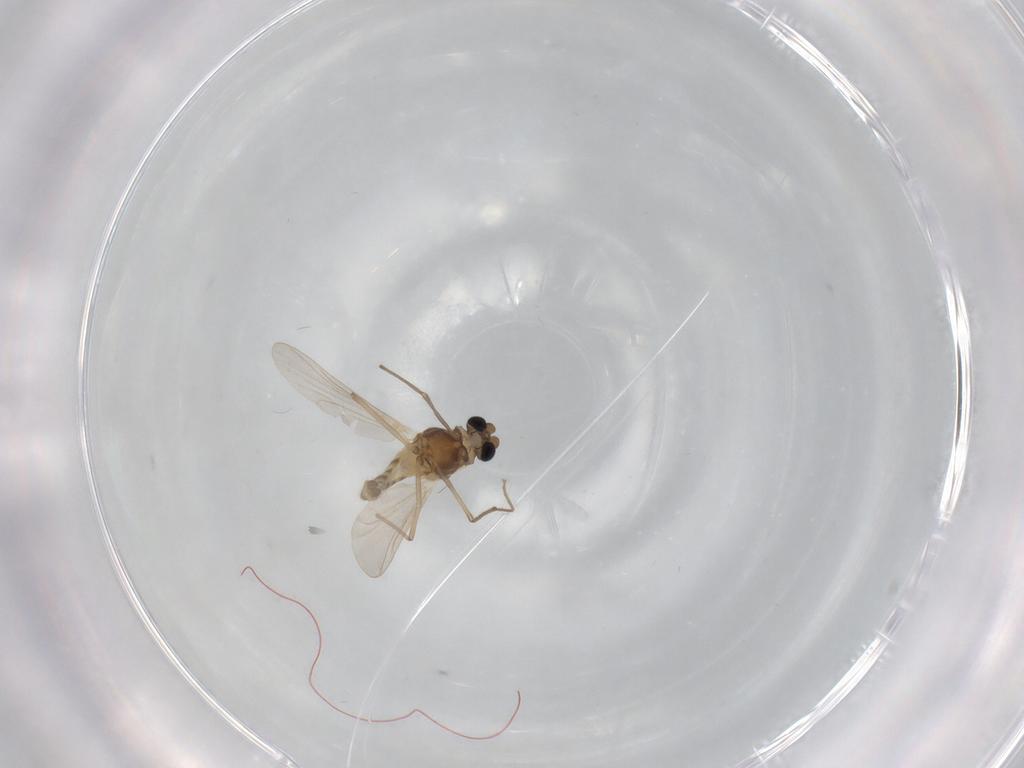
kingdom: Animalia
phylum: Arthropoda
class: Insecta
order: Diptera
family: Chironomidae
